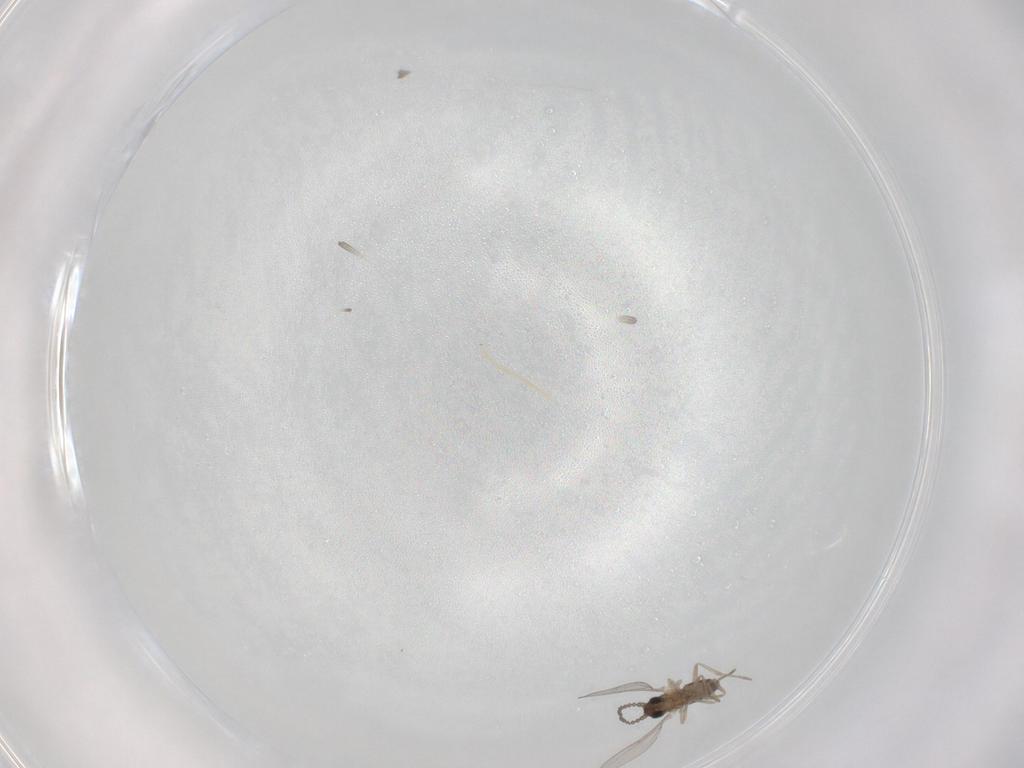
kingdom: Animalia
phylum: Arthropoda
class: Insecta
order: Diptera
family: Cecidomyiidae
